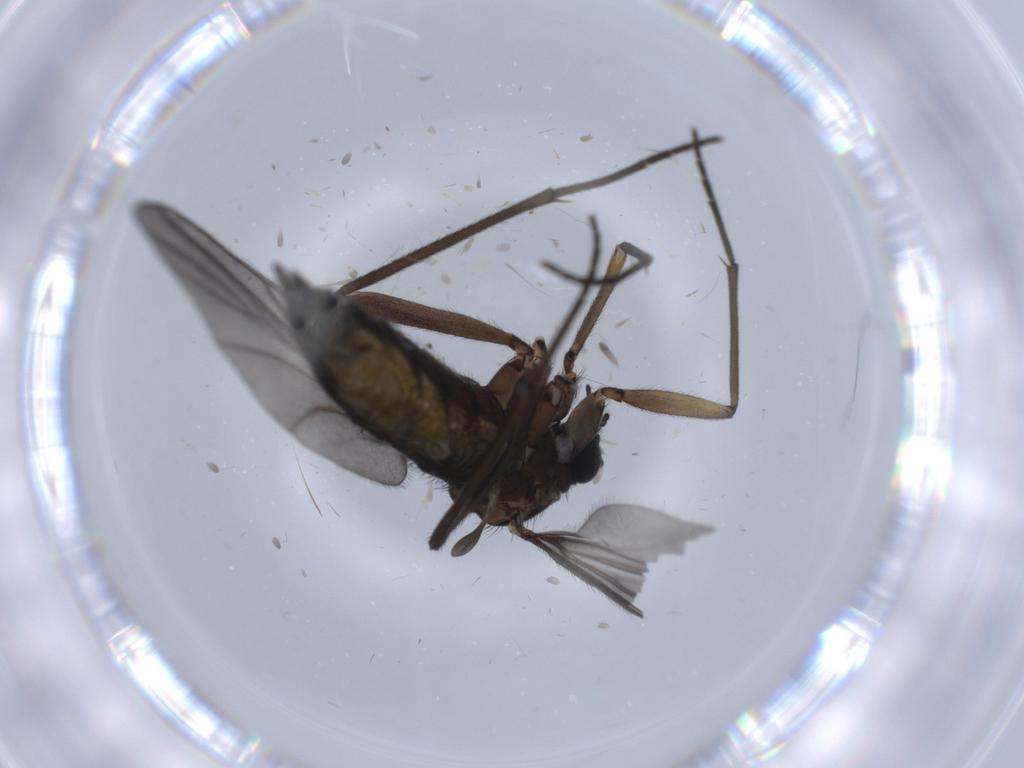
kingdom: Animalia
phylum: Arthropoda
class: Insecta
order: Diptera
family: Sciaridae
